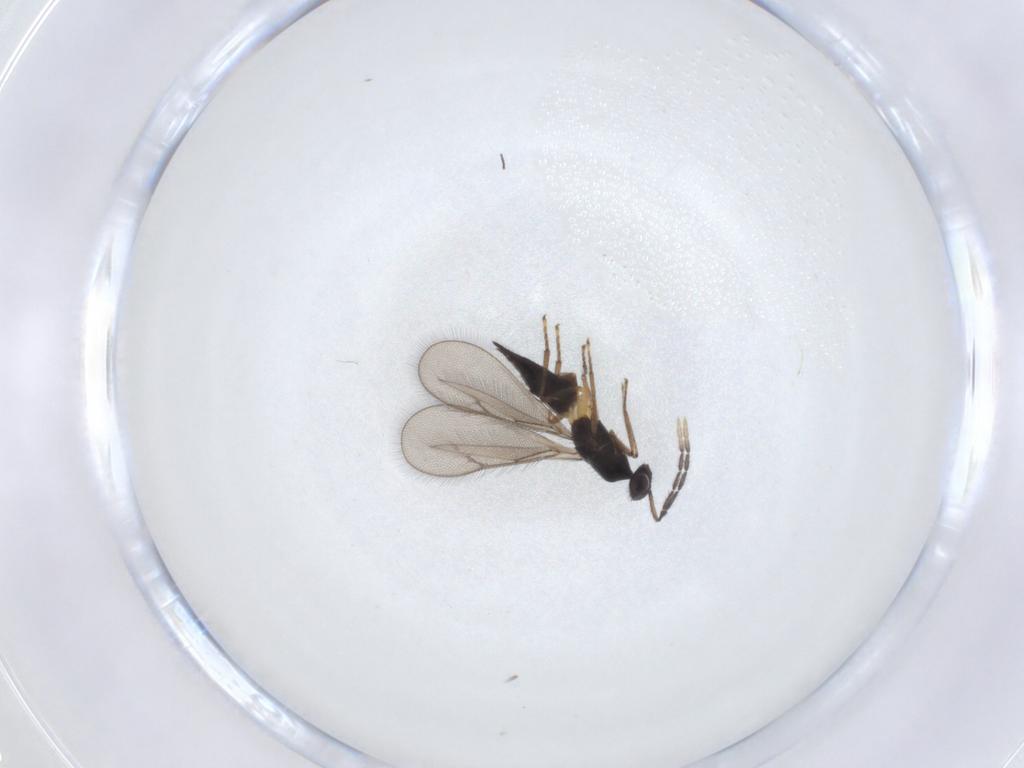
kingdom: Animalia
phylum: Arthropoda
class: Insecta
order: Hymenoptera
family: Eulophidae
